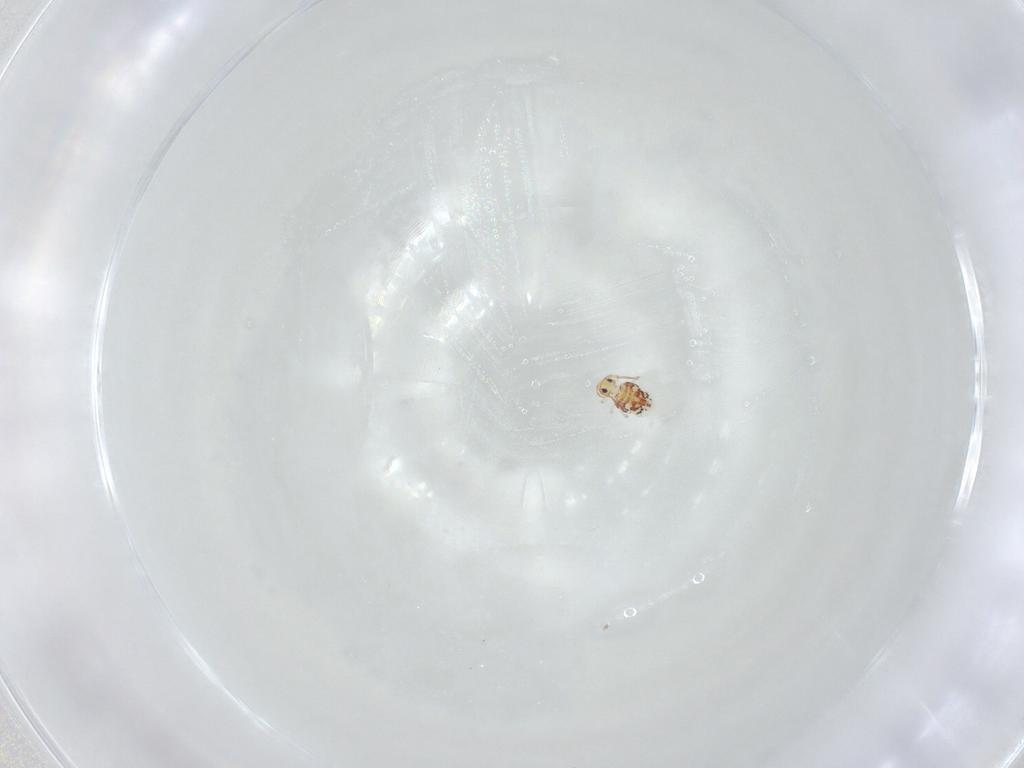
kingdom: Animalia
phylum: Arthropoda
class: Collembola
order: Symphypleona
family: Bourletiellidae
